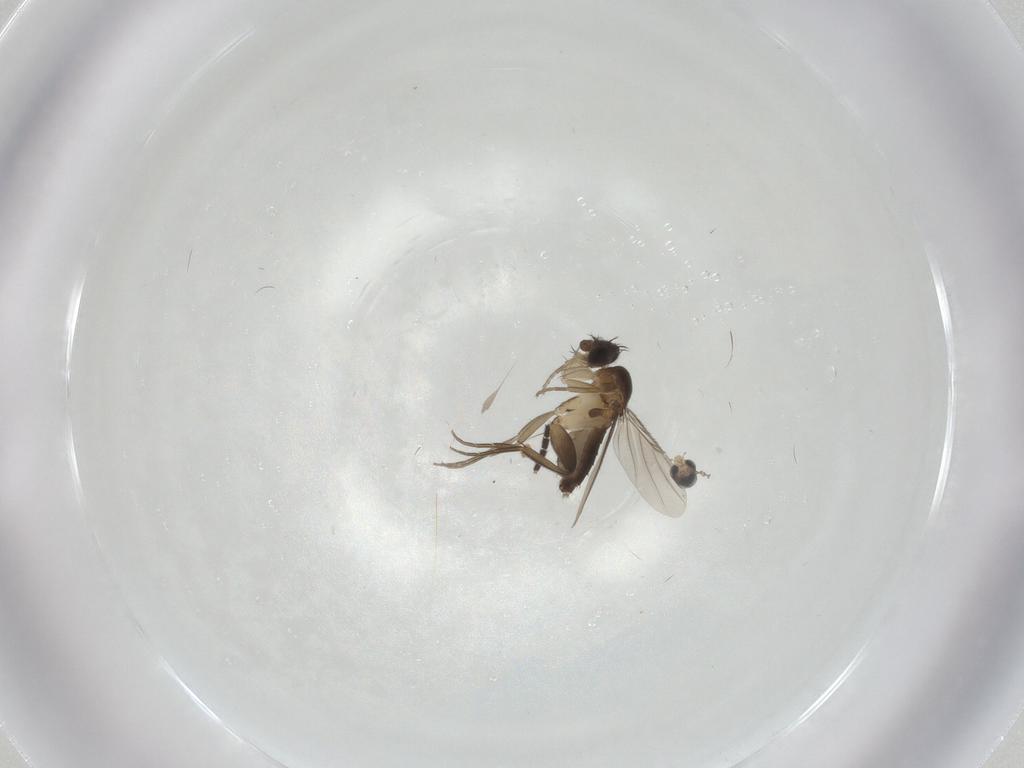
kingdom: Animalia
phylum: Arthropoda
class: Insecta
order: Diptera
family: Phoridae
